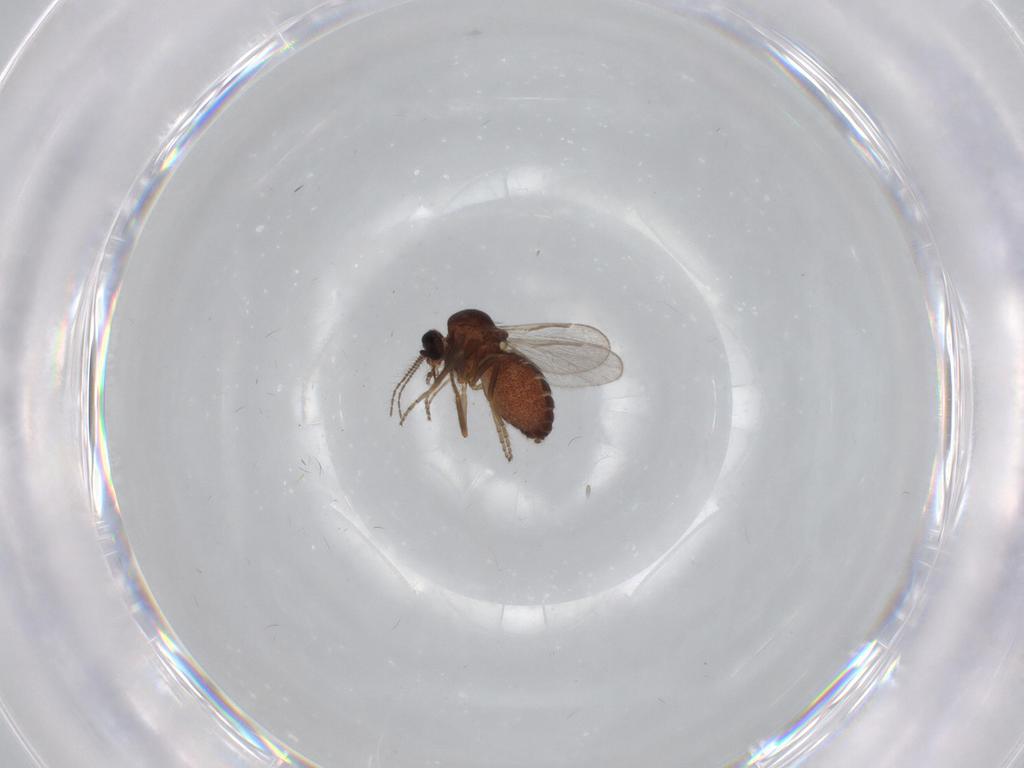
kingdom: Animalia
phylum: Arthropoda
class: Insecta
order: Diptera
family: Ceratopogonidae
